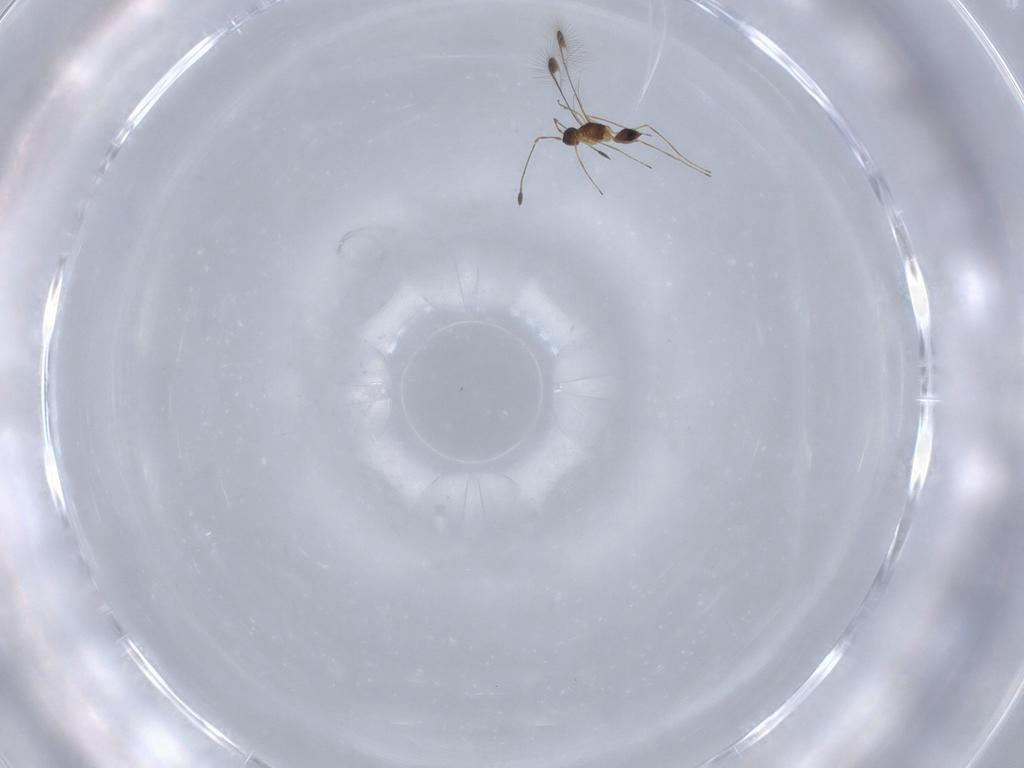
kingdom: Animalia
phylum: Arthropoda
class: Insecta
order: Hymenoptera
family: Mymaridae
